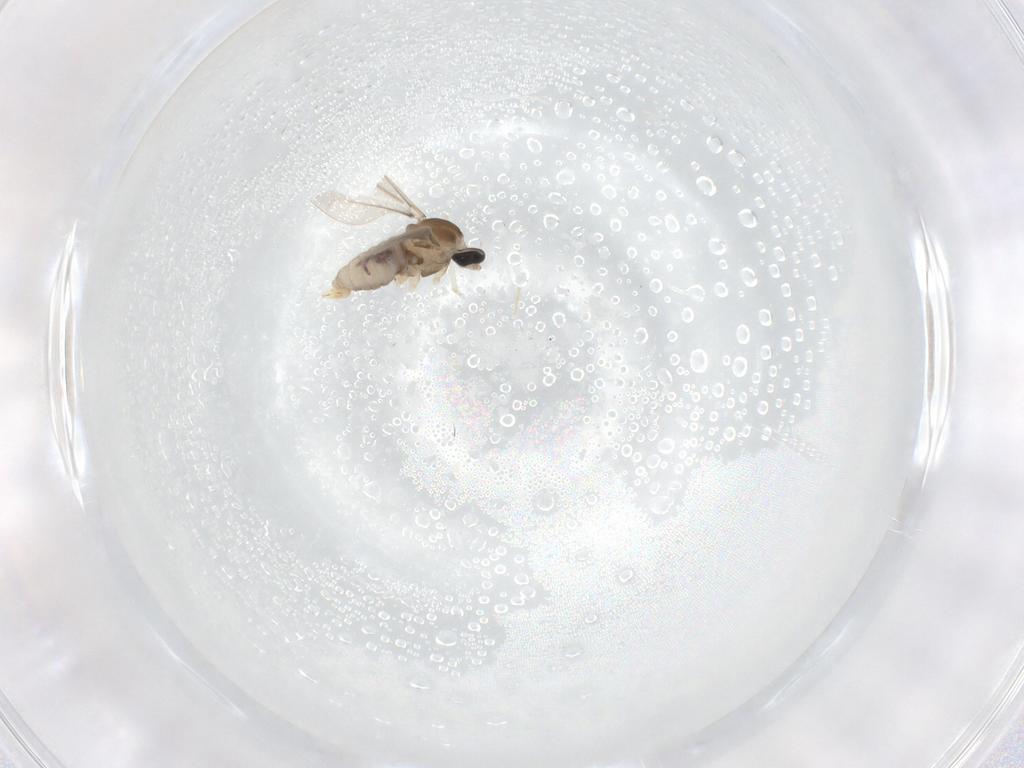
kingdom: Animalia
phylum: Arthropoda
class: Insecta
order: Diptera
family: Cecidomyiidae
